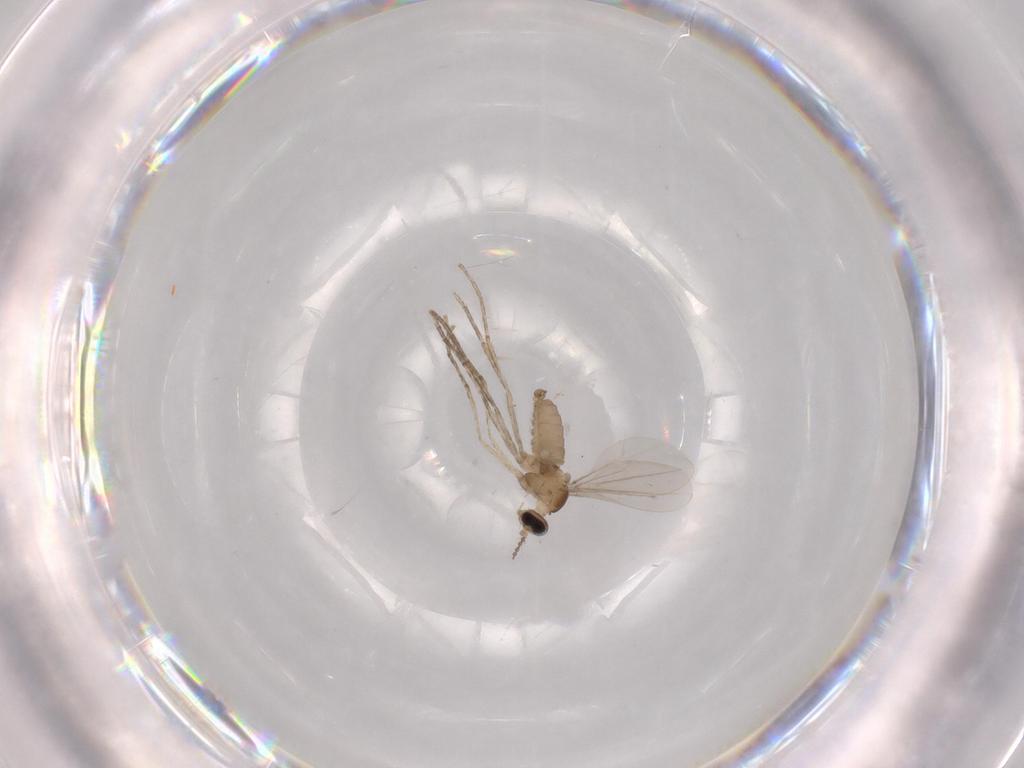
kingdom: Animalia
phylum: Arthropoda
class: Insecta
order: Diptera
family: Cecidomyiidae
